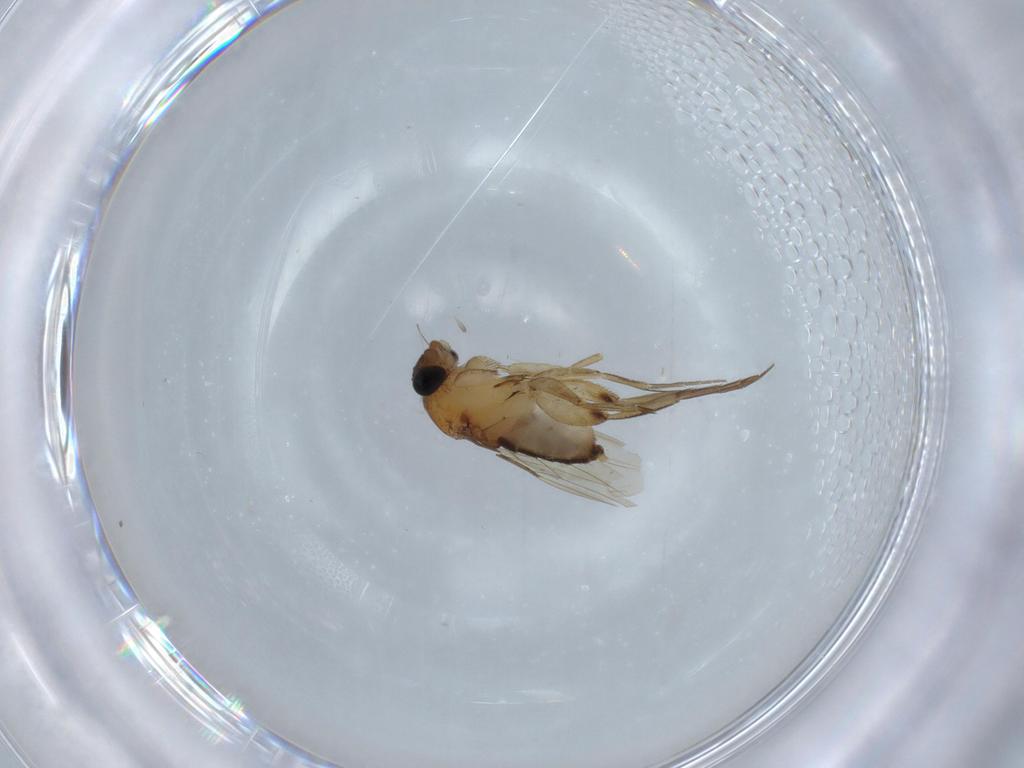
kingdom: Animalia
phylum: Arthropoda
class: Insecta
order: Diptera
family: Phoridae
